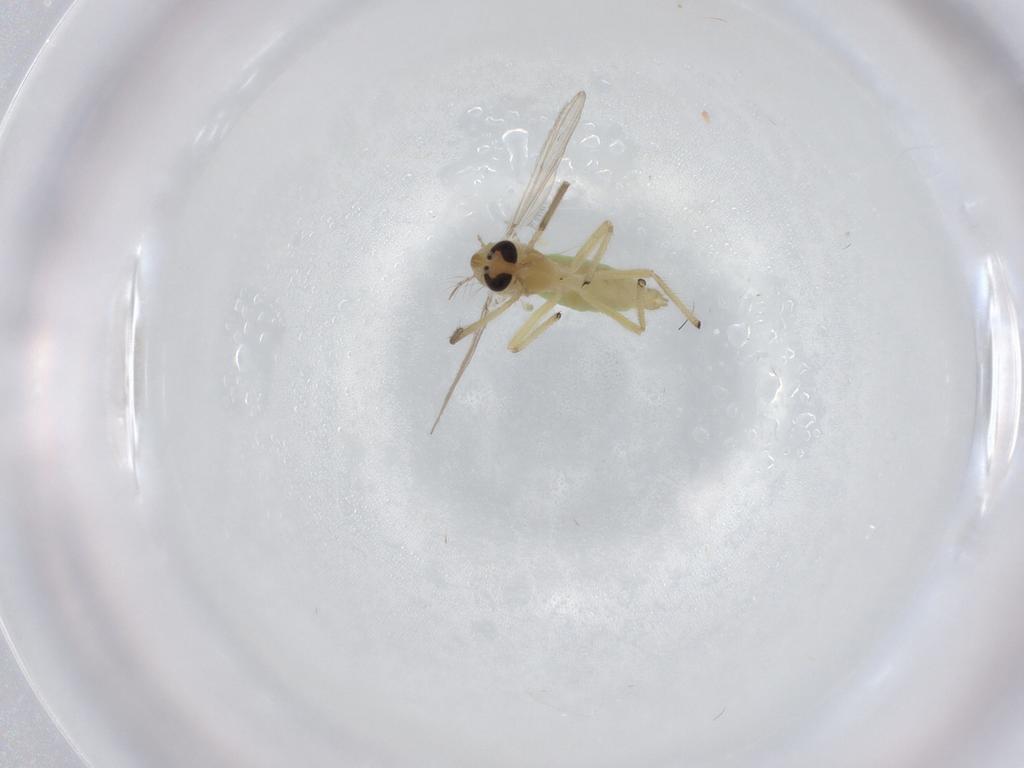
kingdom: Animalia
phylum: Arthropoda
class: Insecta
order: Diptera
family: Chironomidae
